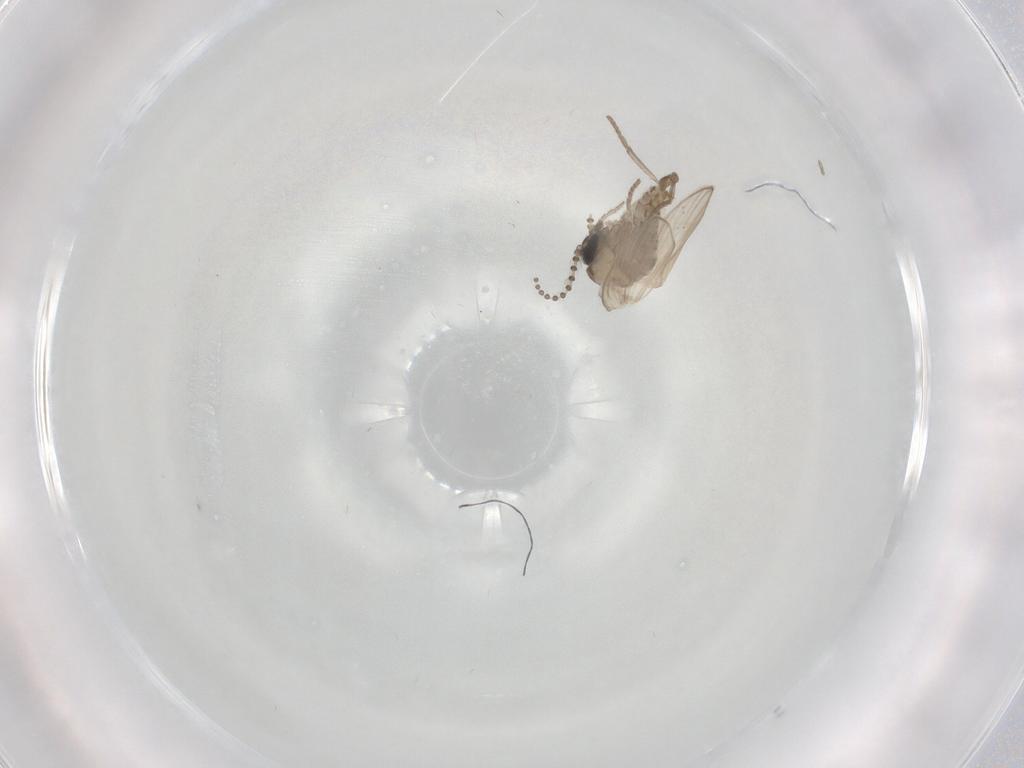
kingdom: Animalia
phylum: Arthropoda
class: Insecta
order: Diptera
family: Psychodidae
